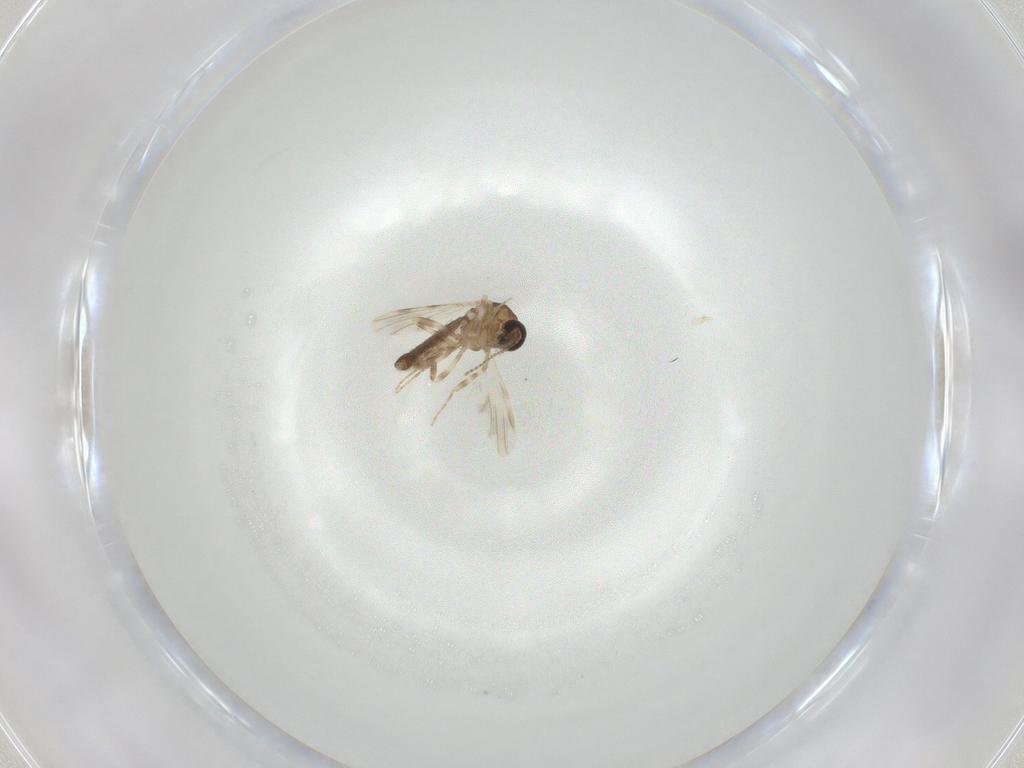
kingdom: Animalia
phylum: Arthropoda
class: Insecta
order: Diptera
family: Ceratopogonidae
